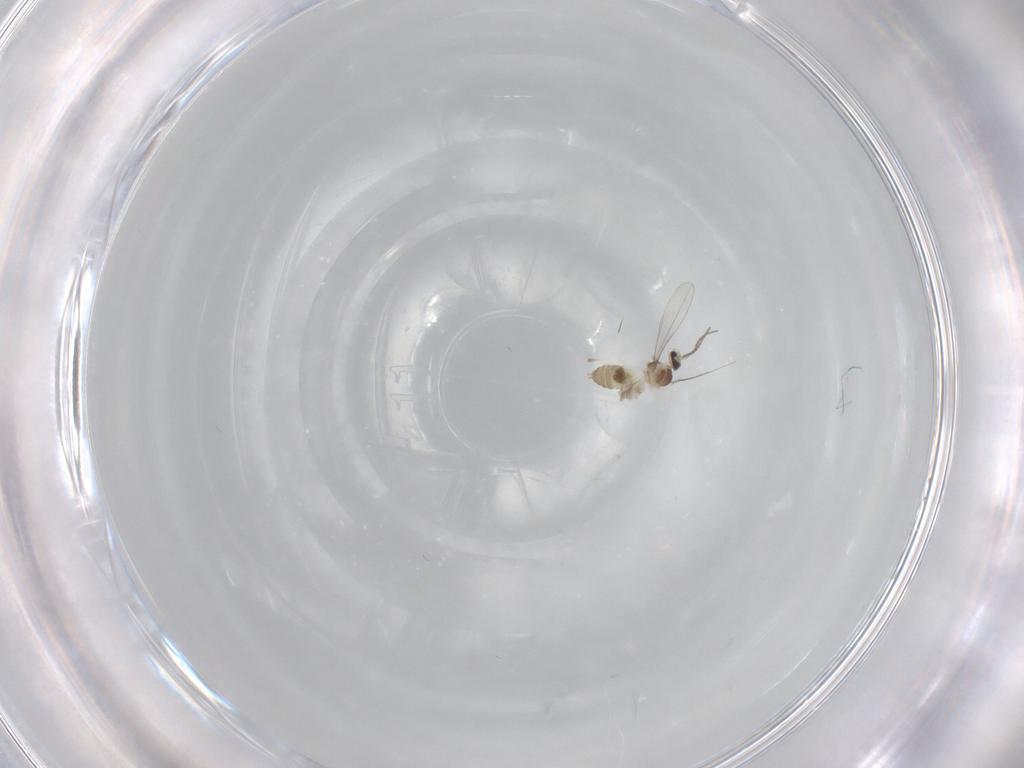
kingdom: Animalia
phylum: Arthropoda
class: Insecta
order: Diptera
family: Cecidomyiidae
